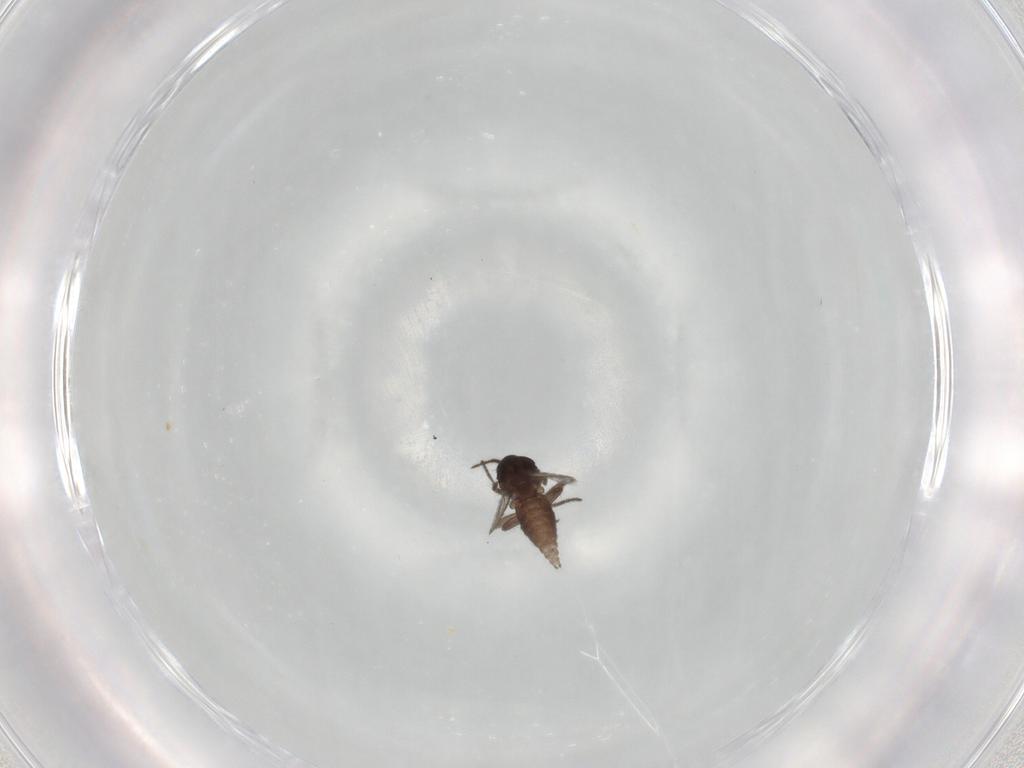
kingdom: Animalia
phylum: Arthropoda
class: Insecta
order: Diptera
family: Ceratopogonidae
